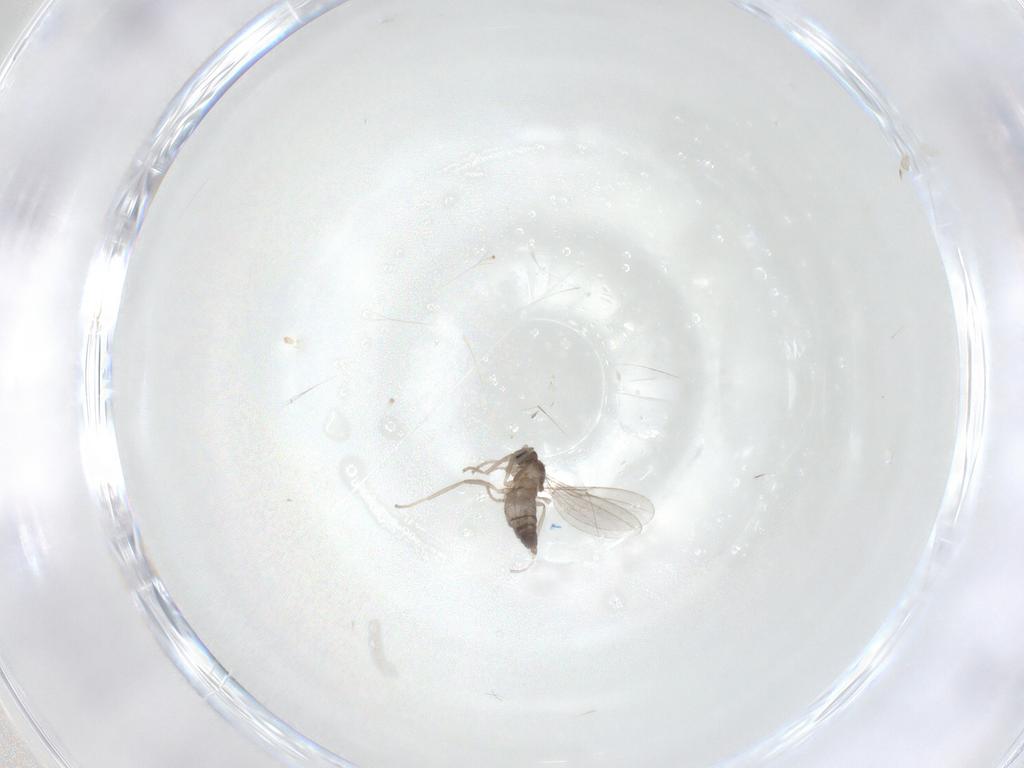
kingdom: Animalia
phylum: Arthropoda
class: Insecta
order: Diptera
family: Cecidomyiidae
